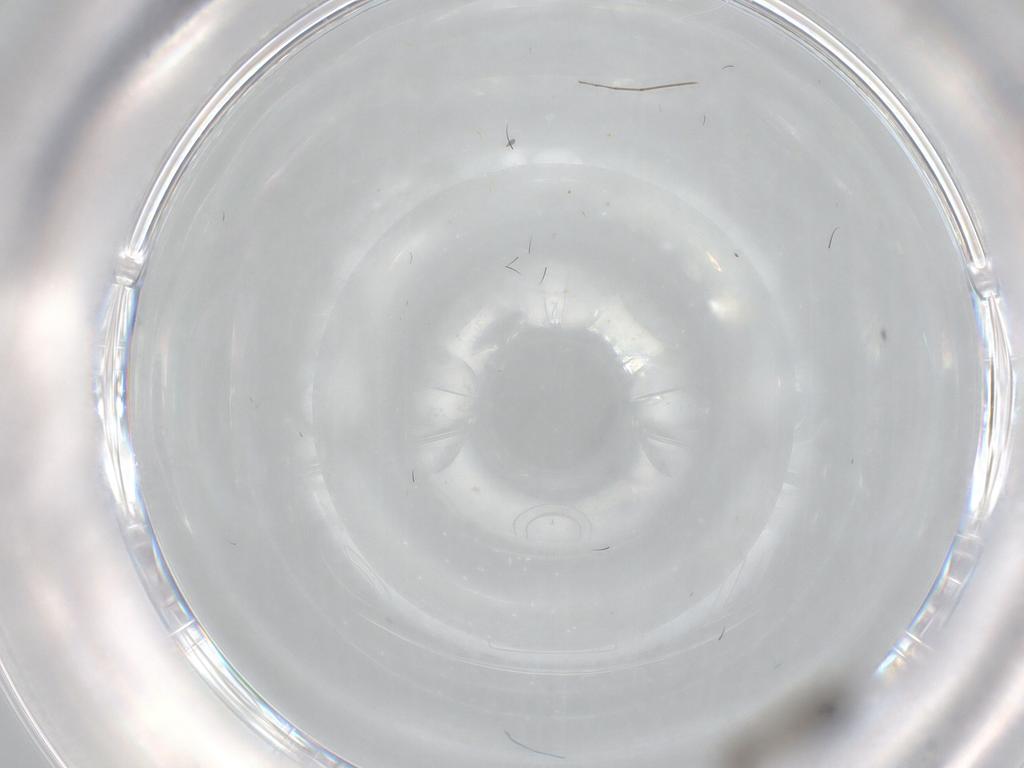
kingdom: Animalia
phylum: Arthropoda
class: Insecta
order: Diptera
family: Dolichopodidae
